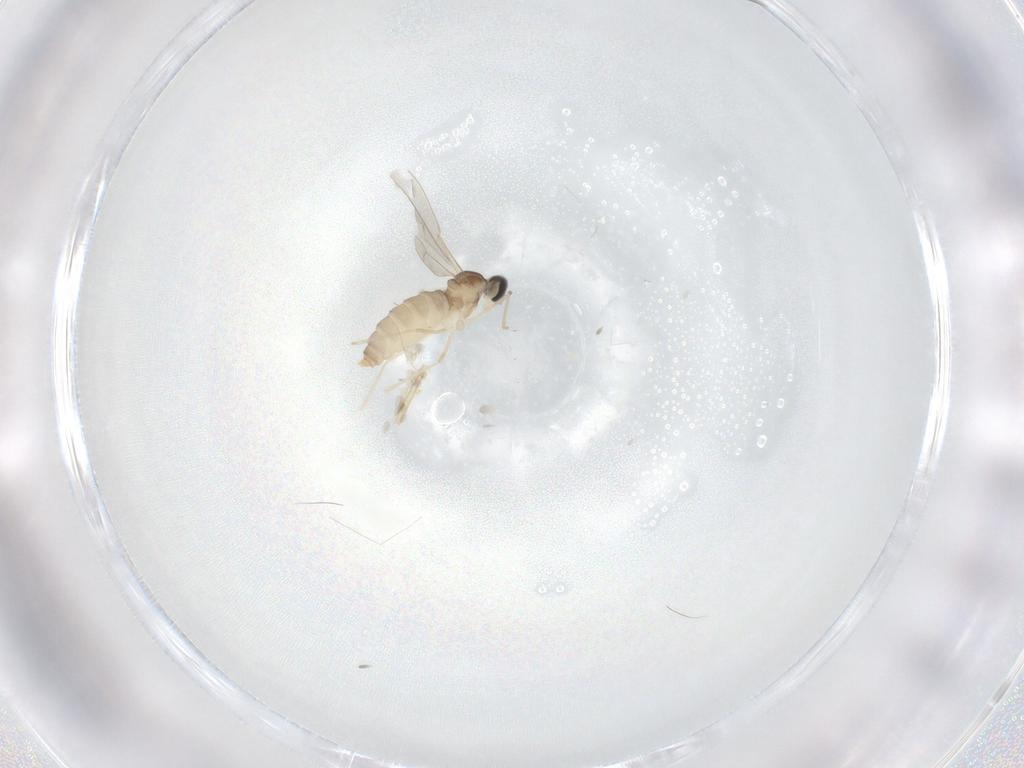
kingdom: Animalia
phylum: Arthropoda
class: Insecta
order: Diptera
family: Cecidomyiidae
